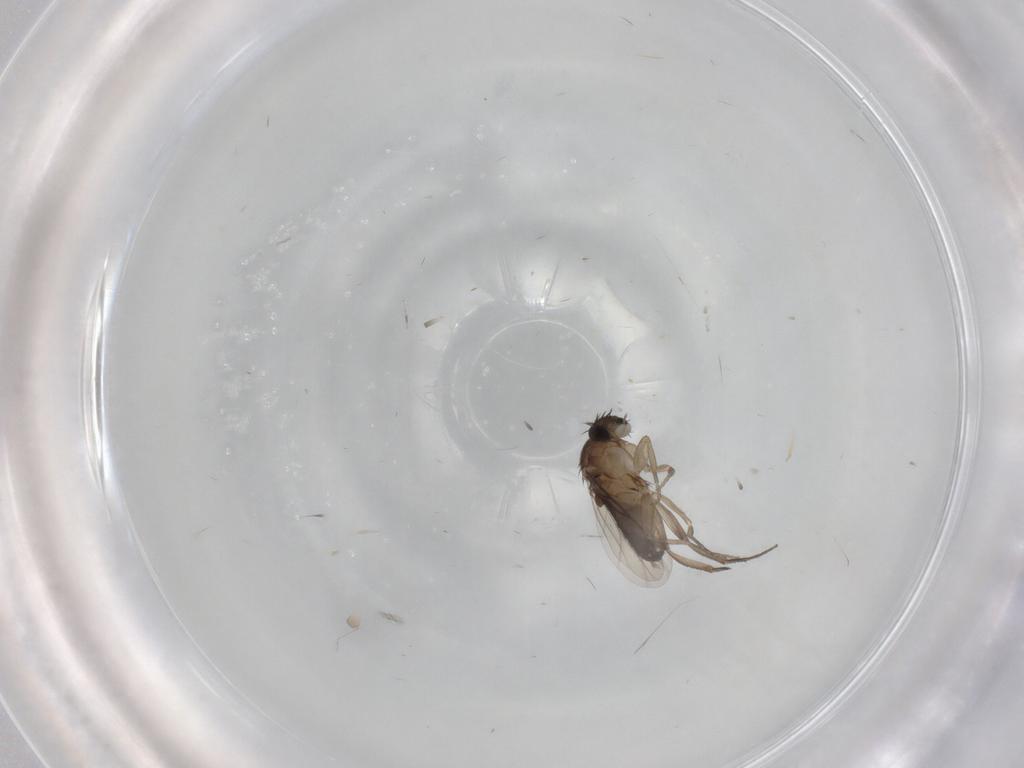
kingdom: Animalia
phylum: Arthropoda
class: Insecta
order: Diptera
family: Phoridae
